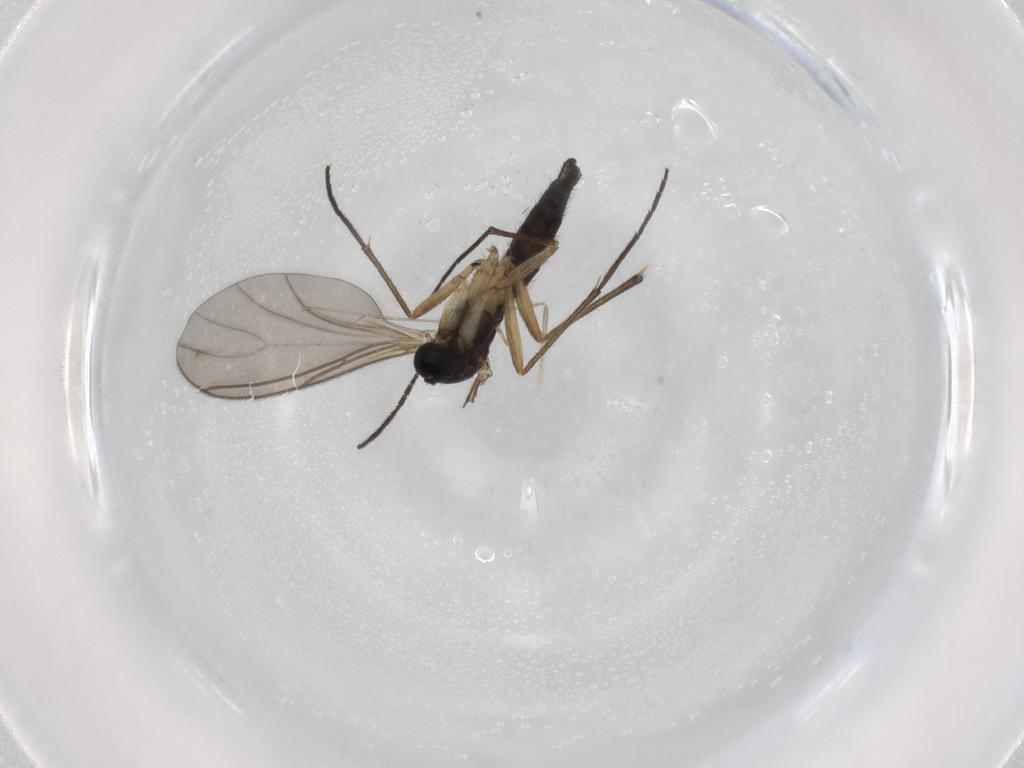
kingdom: Animalia
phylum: Arthropoda
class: Insecta
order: Diptera
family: Sciaridae
